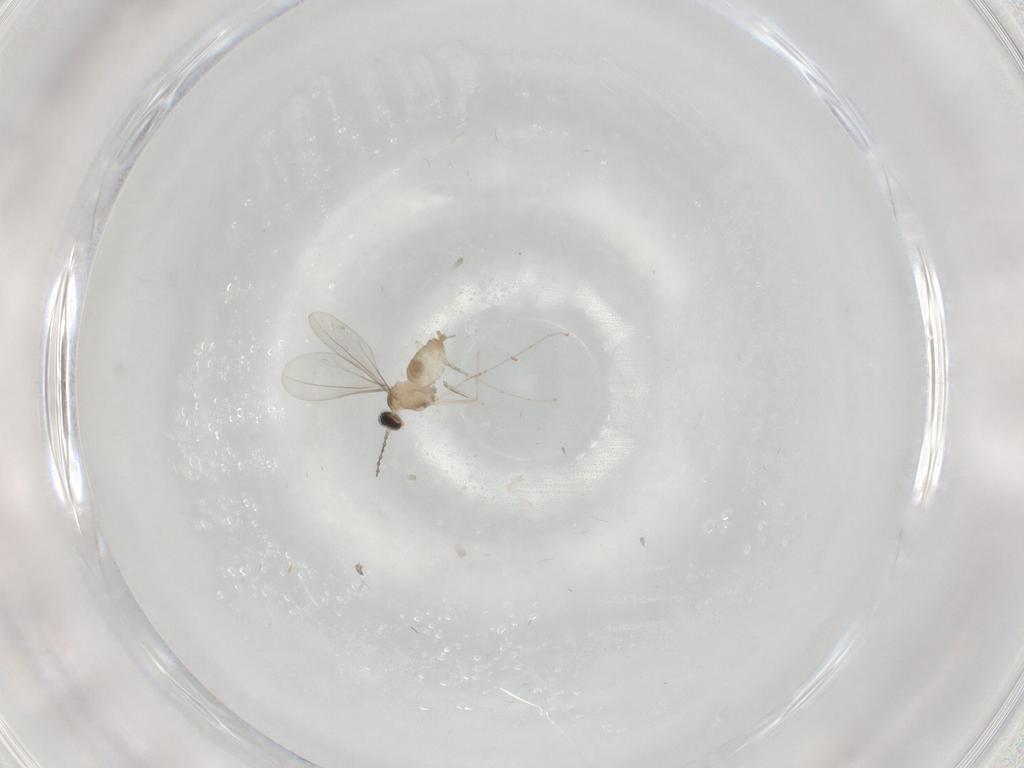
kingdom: Animalia
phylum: Arthropoda
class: Insecta
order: Diptera
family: Cecidomyiidae
